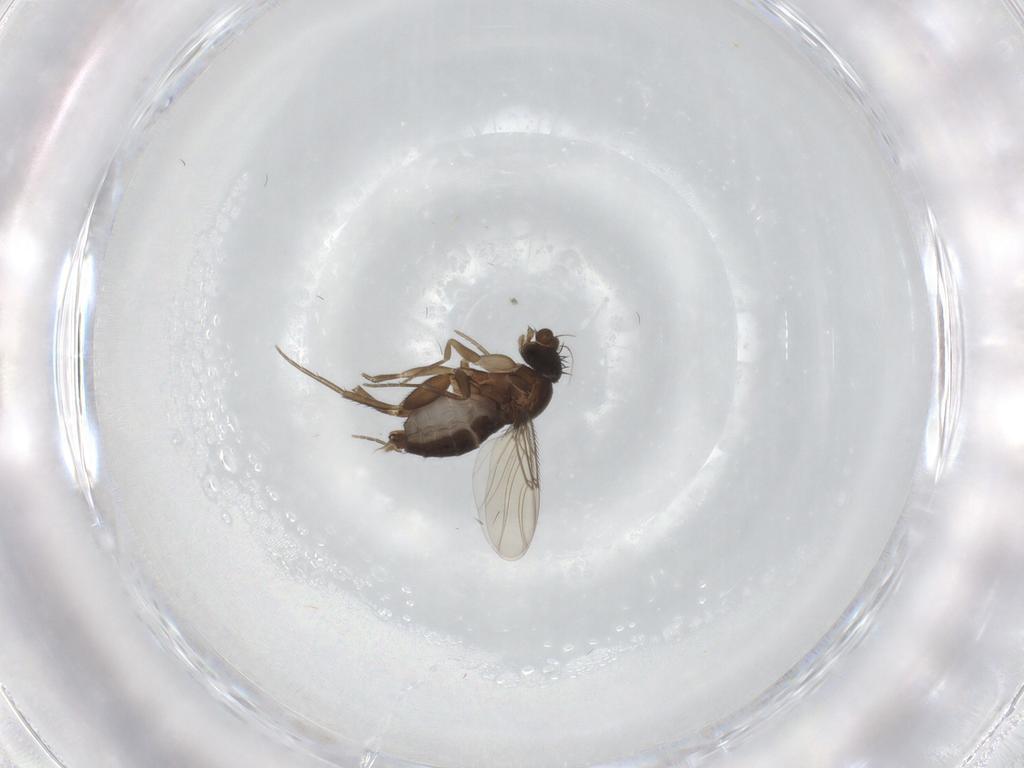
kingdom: Animalia
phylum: Arthropoda
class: Insecta
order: Diptera
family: Phoridae
